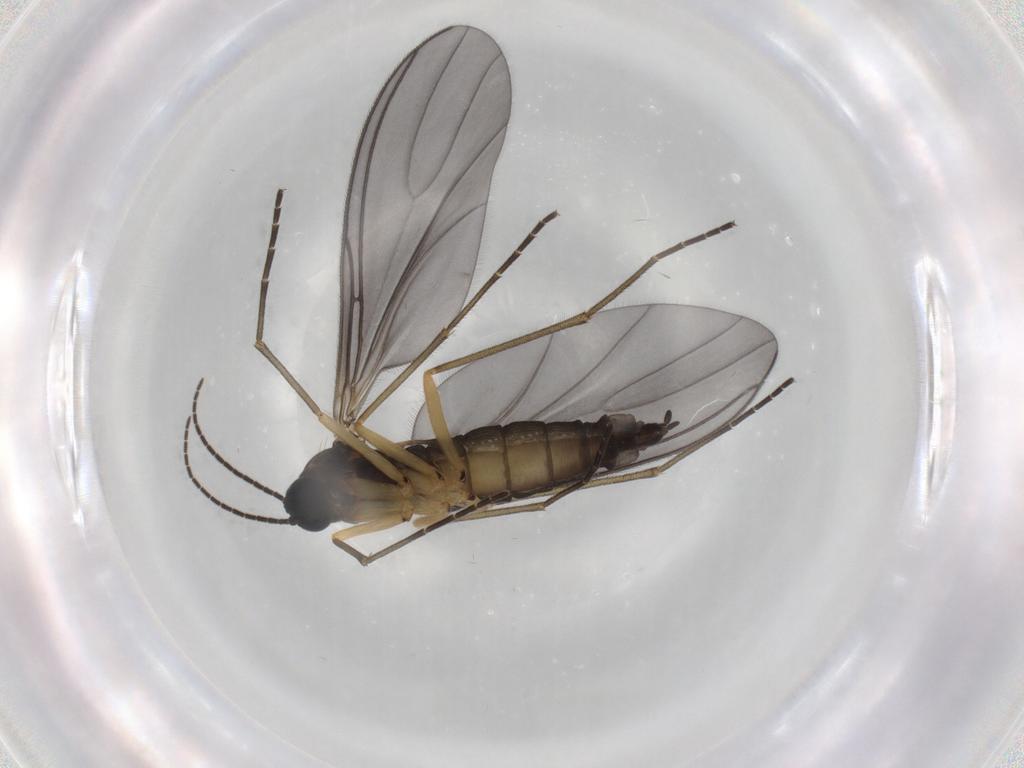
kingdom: Animalia
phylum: Arthropoda
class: Insecta
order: Diptera
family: Sciaridae
